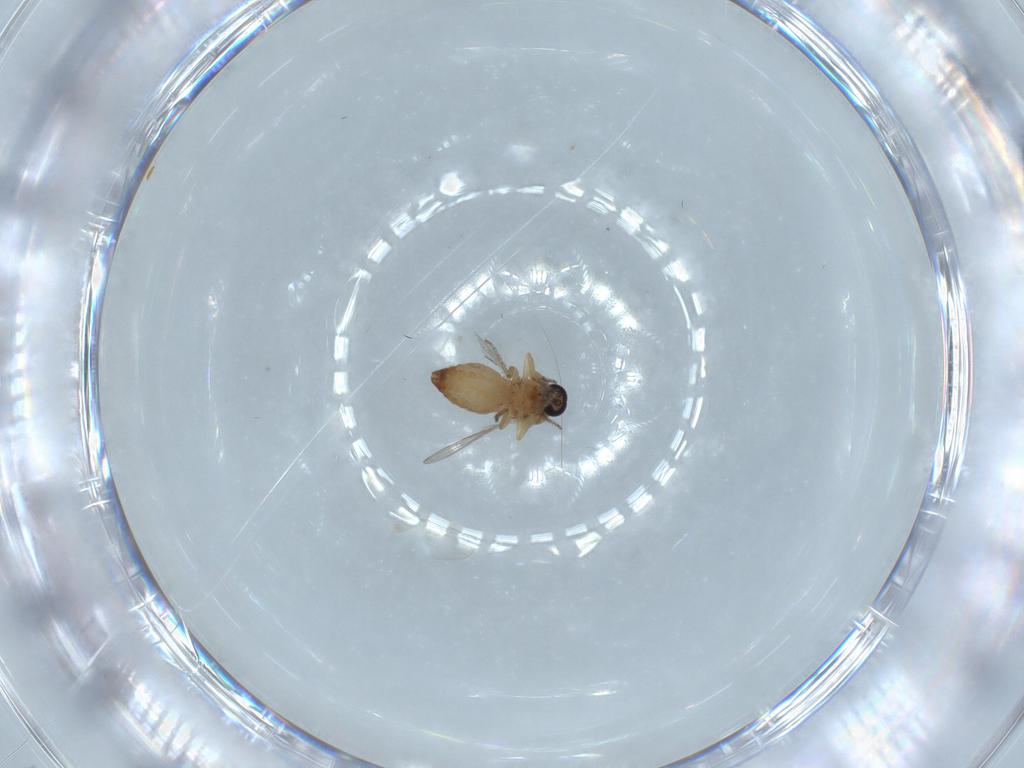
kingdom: Animalia
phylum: Arthropoda
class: Insecta
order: Diptera
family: Ceratopogonidae
